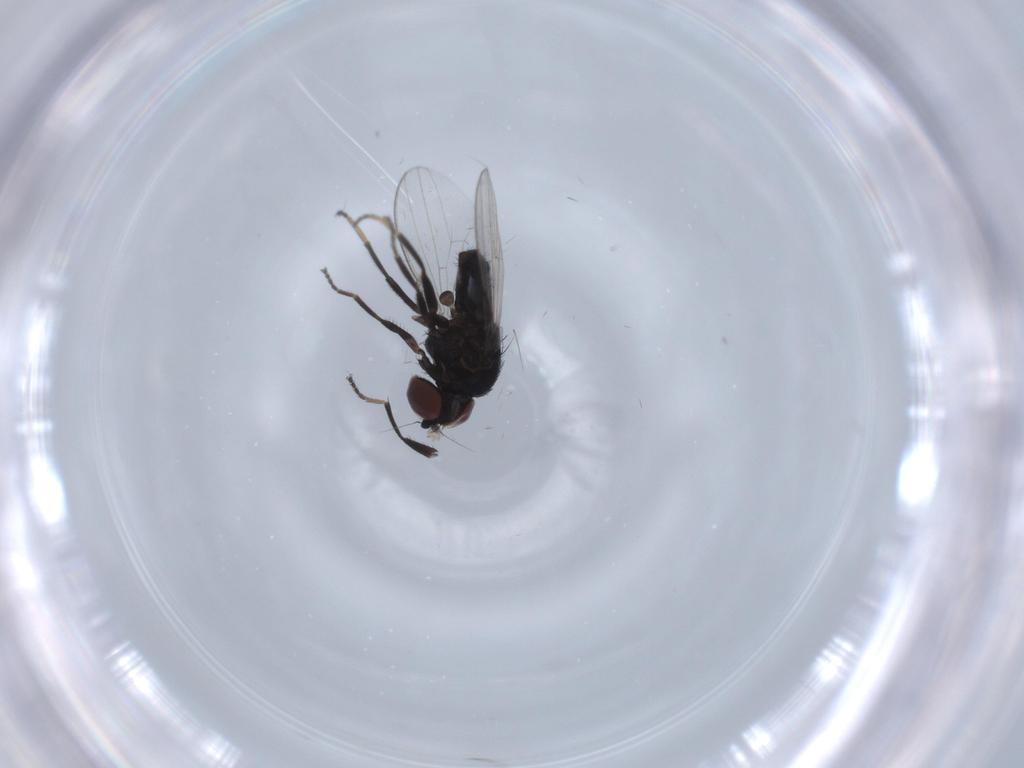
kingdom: Animalia
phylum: Arthropoda
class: Insecta
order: Diptera
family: Milichiidae
